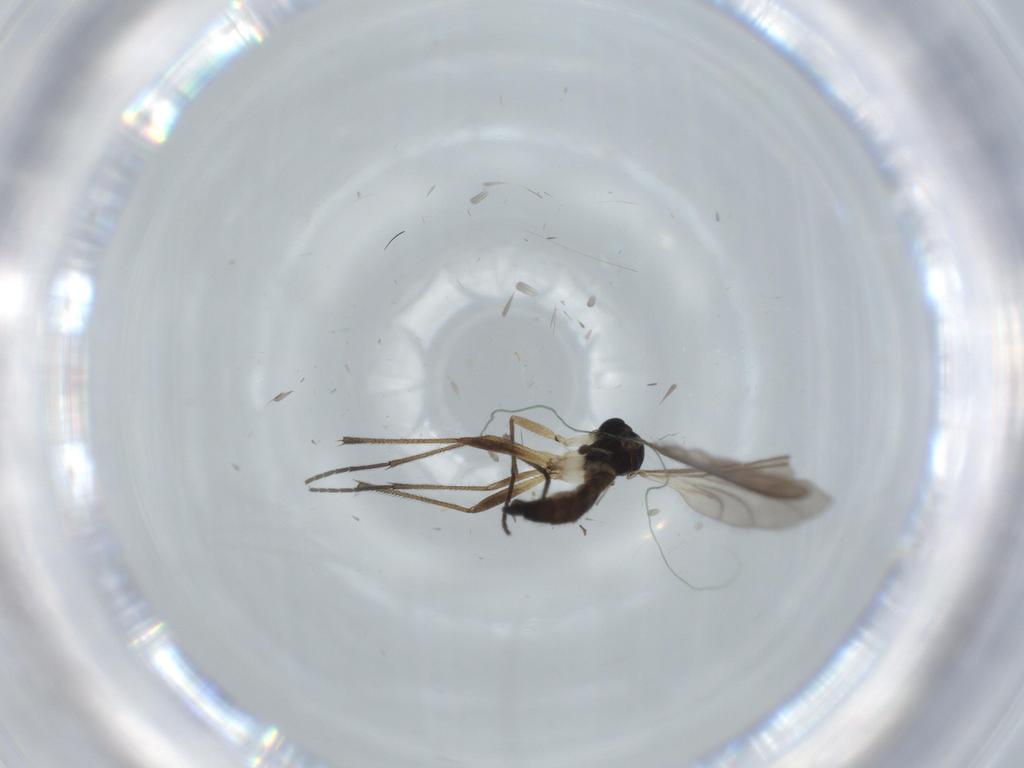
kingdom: Animalia
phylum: Arthropoda
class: Insecta
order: Diptera
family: Sciaridae
